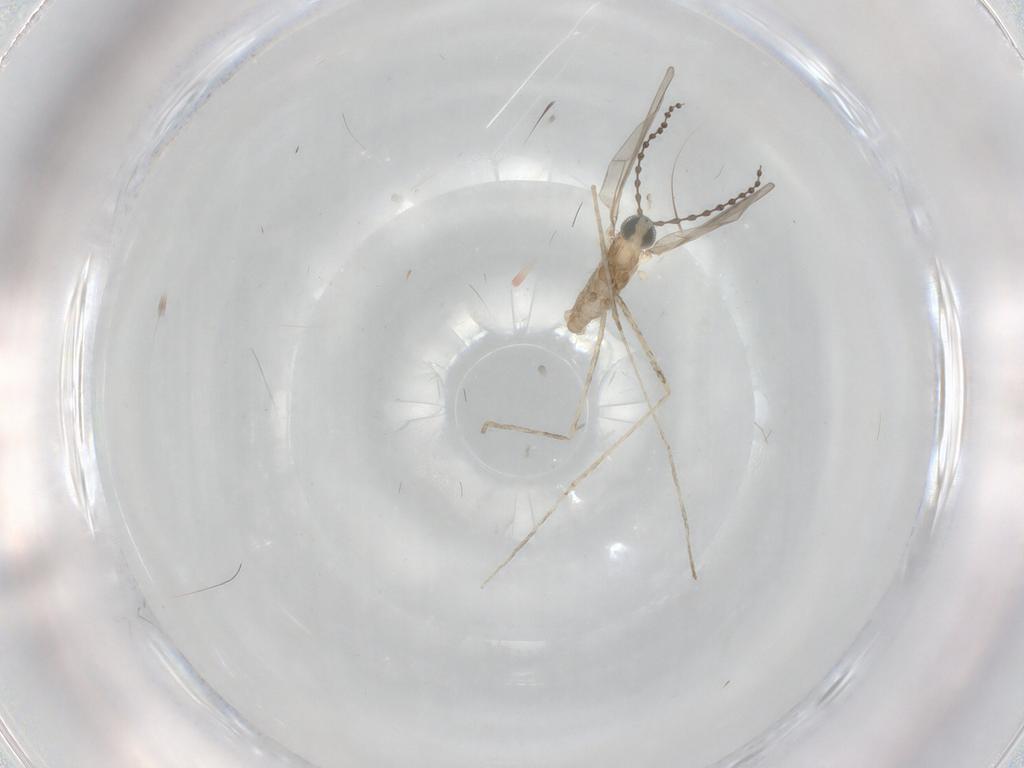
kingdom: Animalia
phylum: Arthropoda
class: Insecta
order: Diptera
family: Cecidomyiidae
